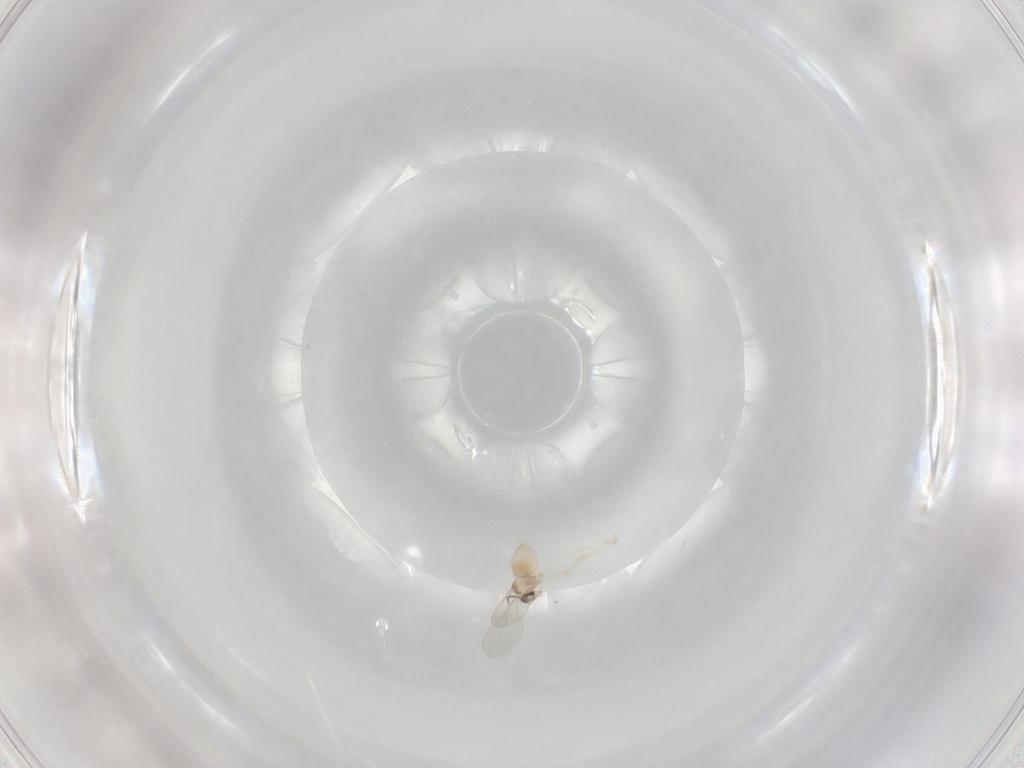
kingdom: Animalia
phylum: Arthropoda
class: Insecta
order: Diptera
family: Cecidomyiidae
